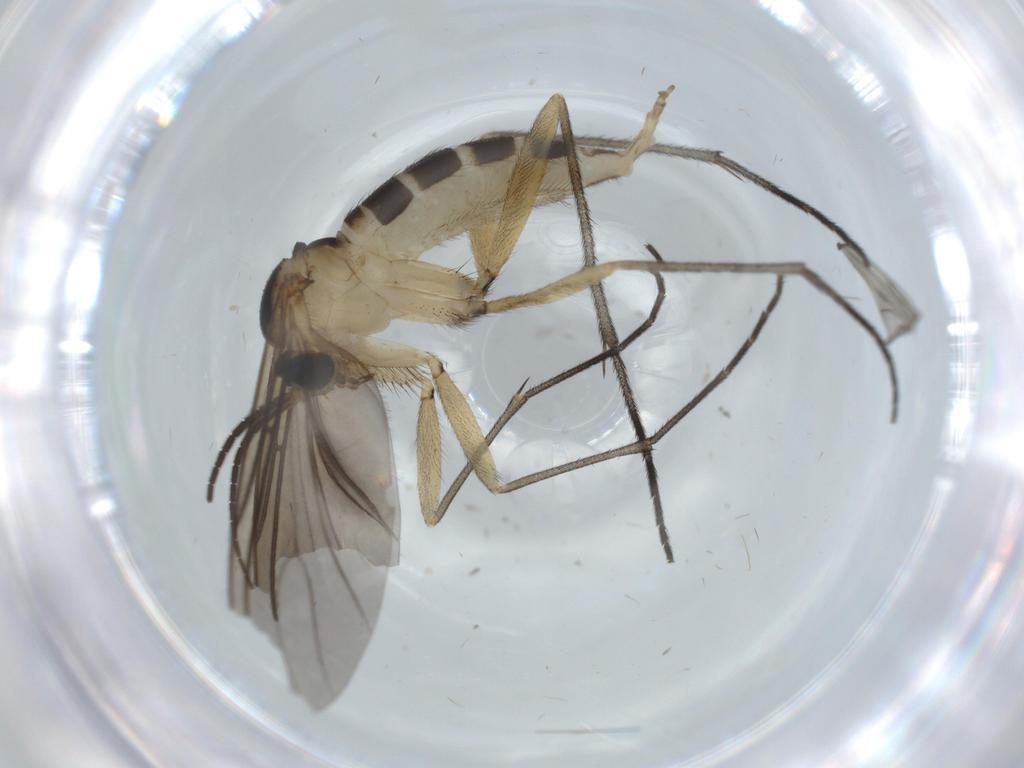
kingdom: Animalia
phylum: Arthropoda
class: Insecta
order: Diptera
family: Sciaridae
